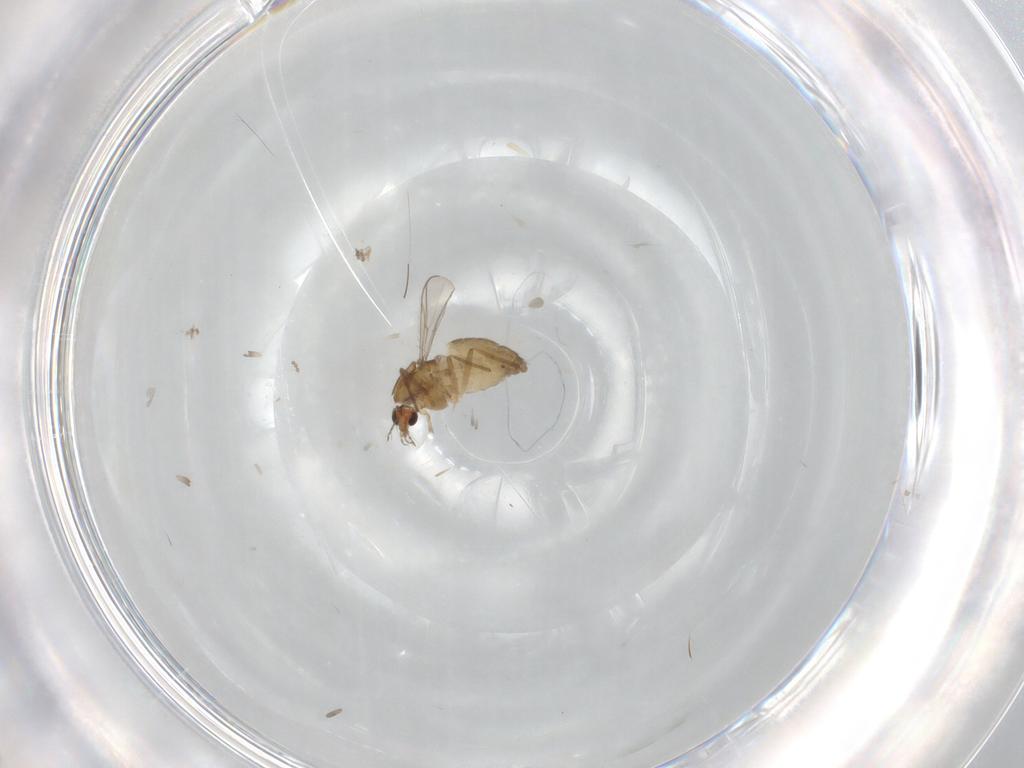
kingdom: Animalia
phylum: Arthropoda
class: Insecta
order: Diptera
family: Chironomidae
